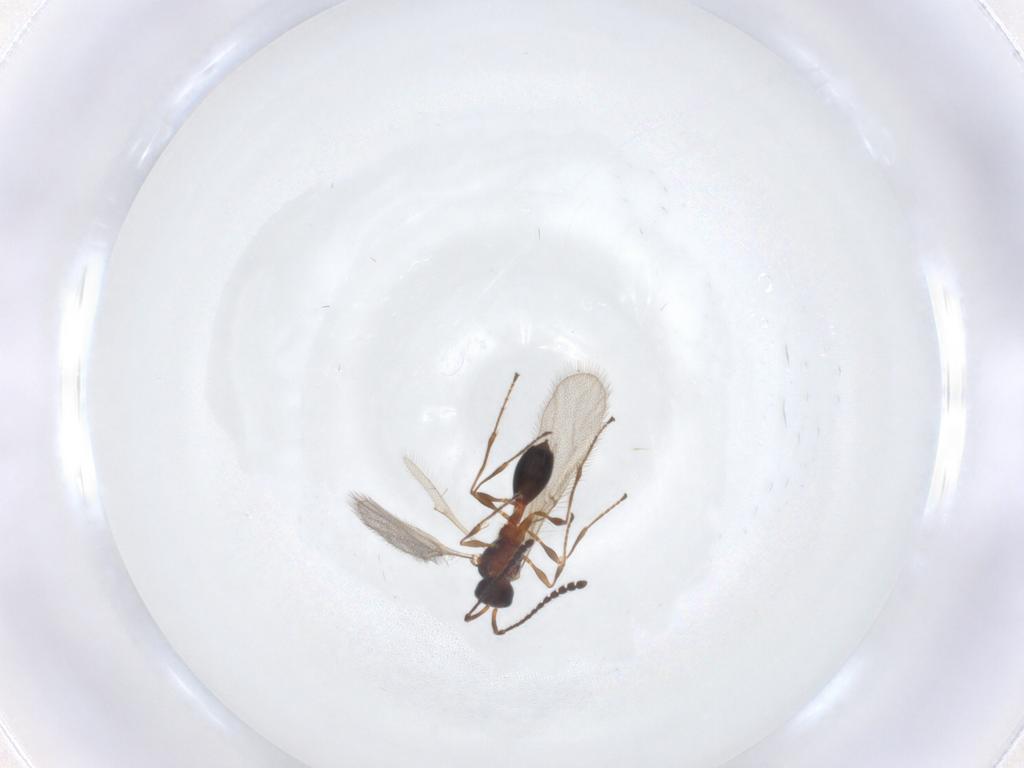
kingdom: Animalia
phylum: Arthropoda
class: Insecta
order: Hymenoptera
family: Diapriidae
